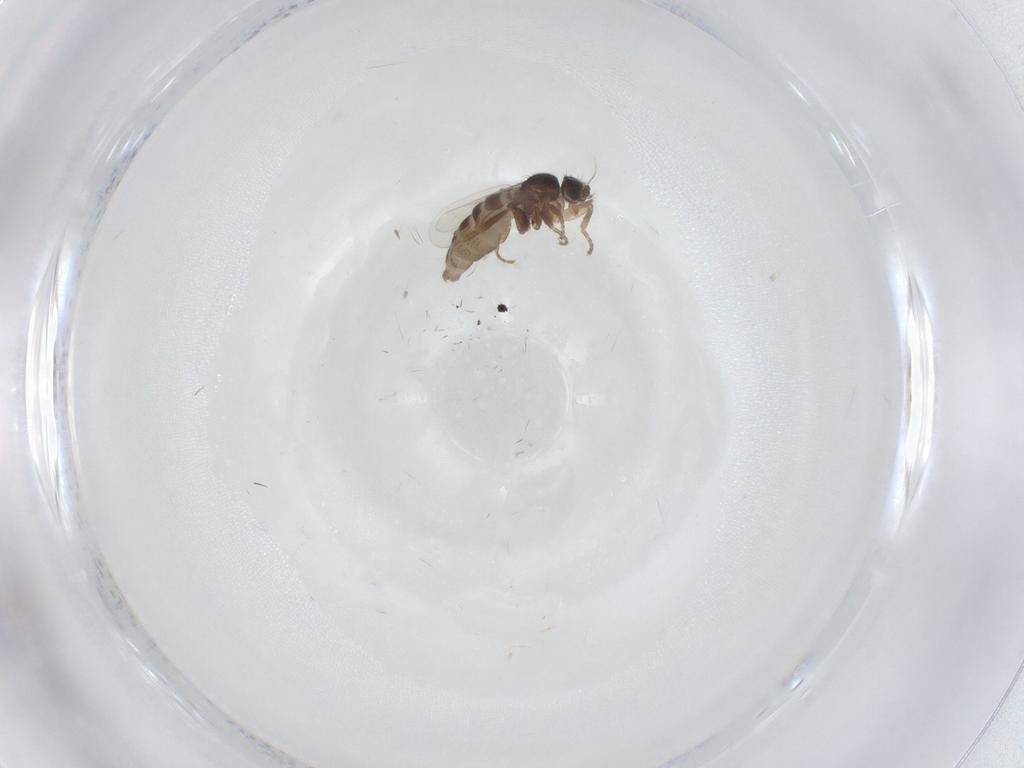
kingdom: Animalia
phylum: Arthropoda
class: Insecta
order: Diptera
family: Phoridae
